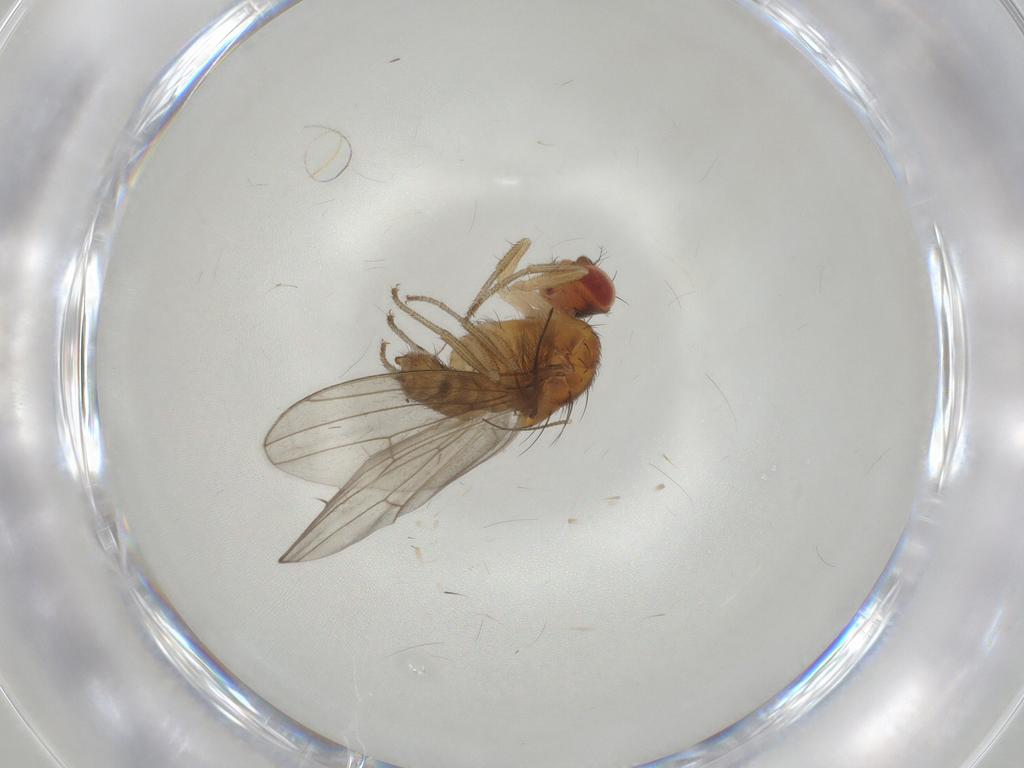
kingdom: Animalia
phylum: Arthropoda
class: Insecta
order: Diptera
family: Drosophilidae
